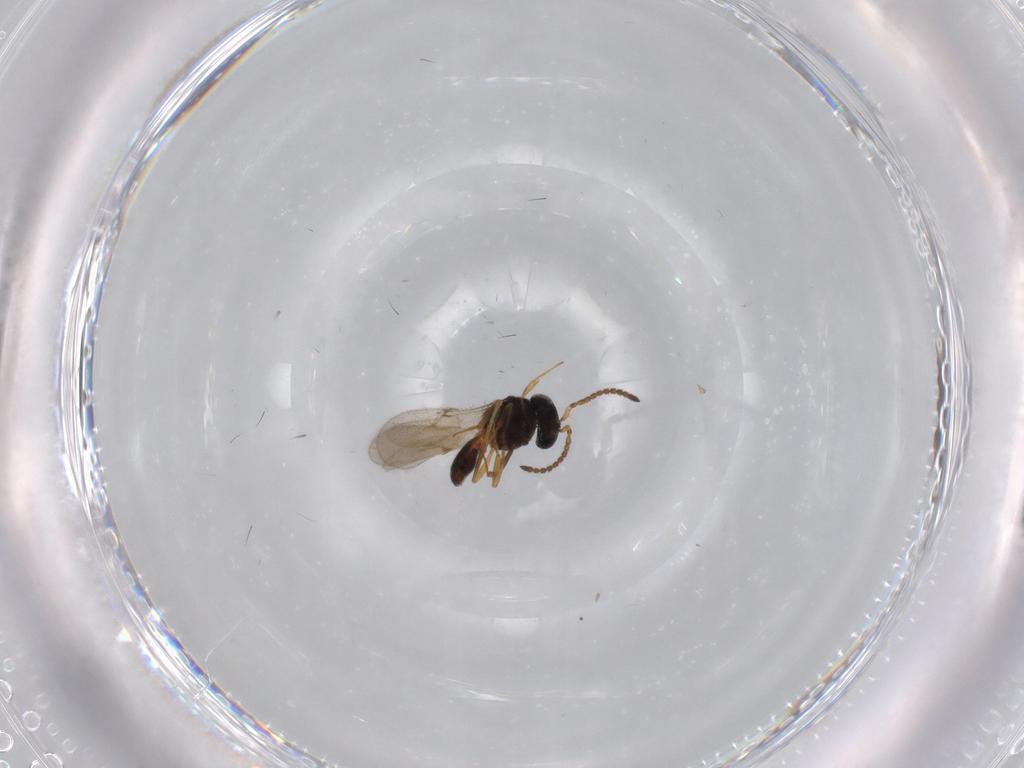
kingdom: Animalia
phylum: Arthropoda
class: Insecta
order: Hymenoptera
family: Scelionidae
